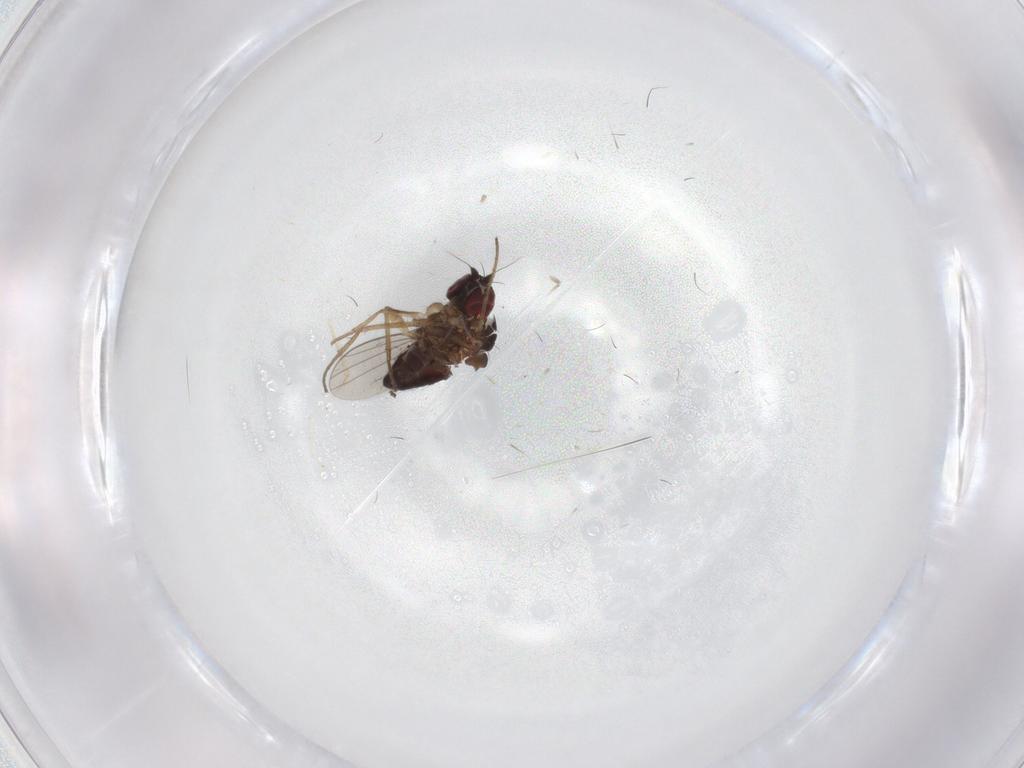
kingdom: Animalia
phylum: Arthropoda
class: Insecta
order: Diptera
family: Dolichopodidae
